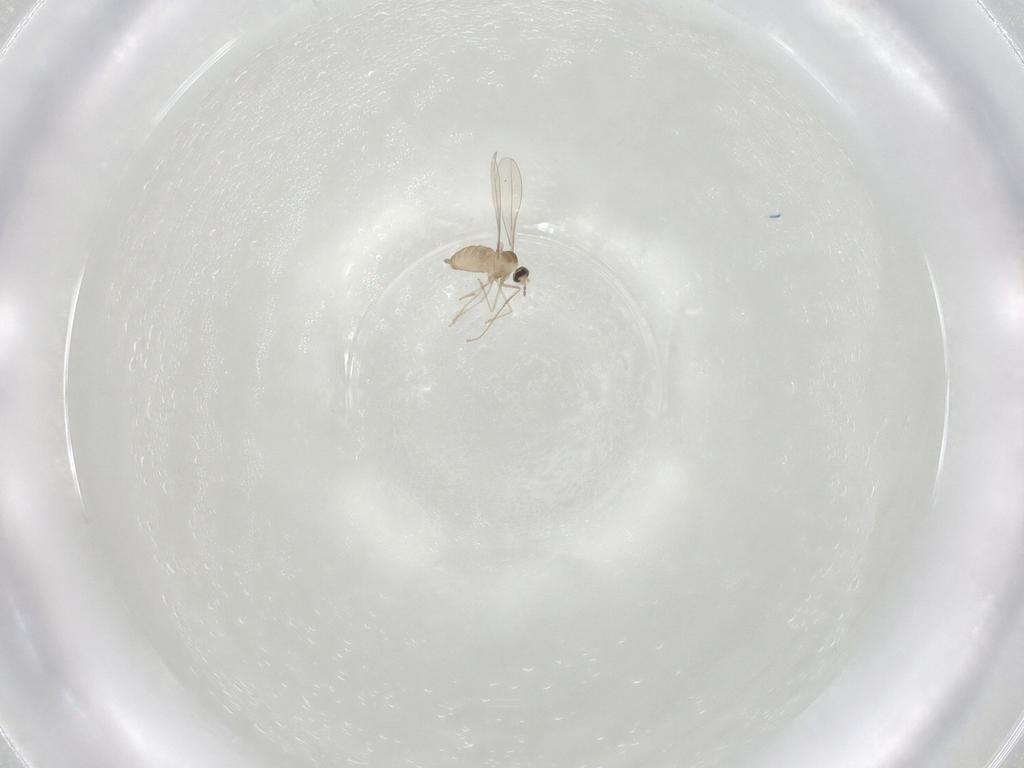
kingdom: Animalia
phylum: Arthropoda
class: Insecta
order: Diptera
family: Cecidomyiidae
